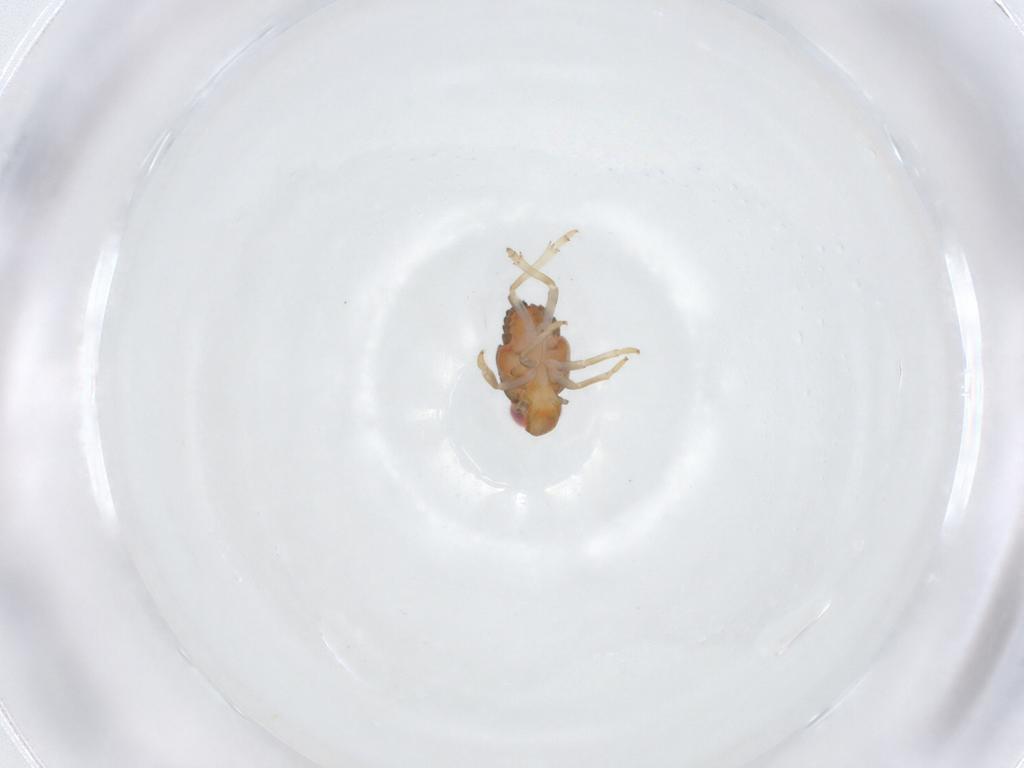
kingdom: Animalia
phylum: Arthropoda
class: Insecta
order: Hemiptera
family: Issidae
